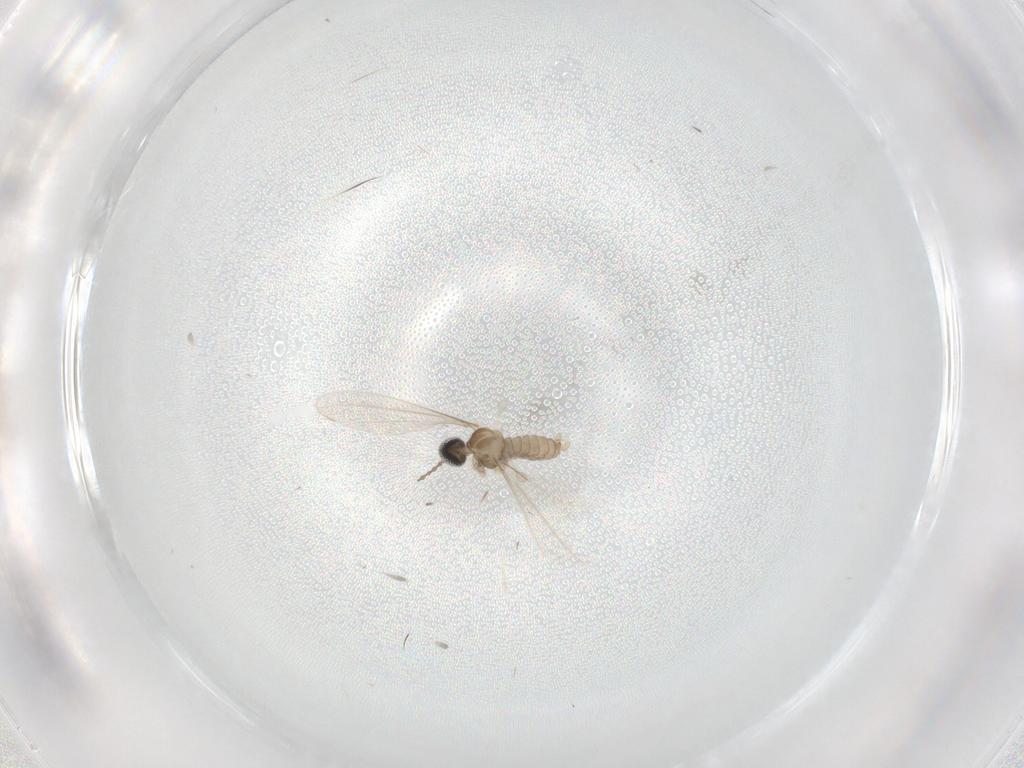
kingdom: Animalia
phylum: Arthropoda
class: Insecta
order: Diptera
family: Cecidomyiidae
